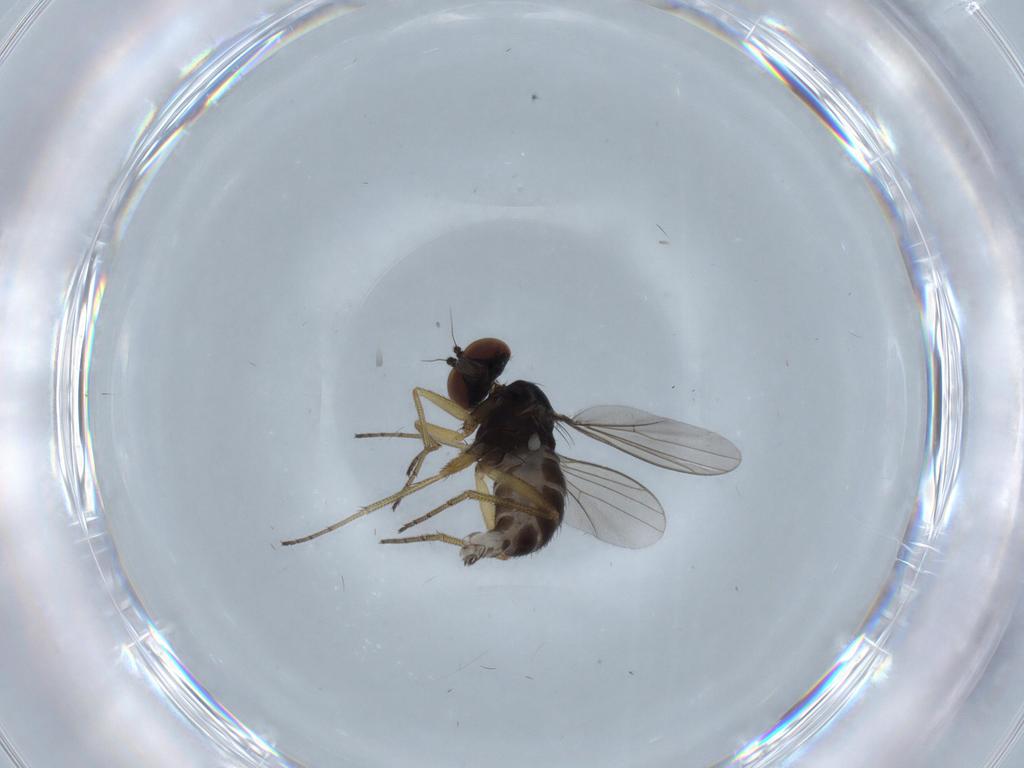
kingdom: Animalia
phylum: Arthropoda
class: Insecta
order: Diptera
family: Dolichopodidae
